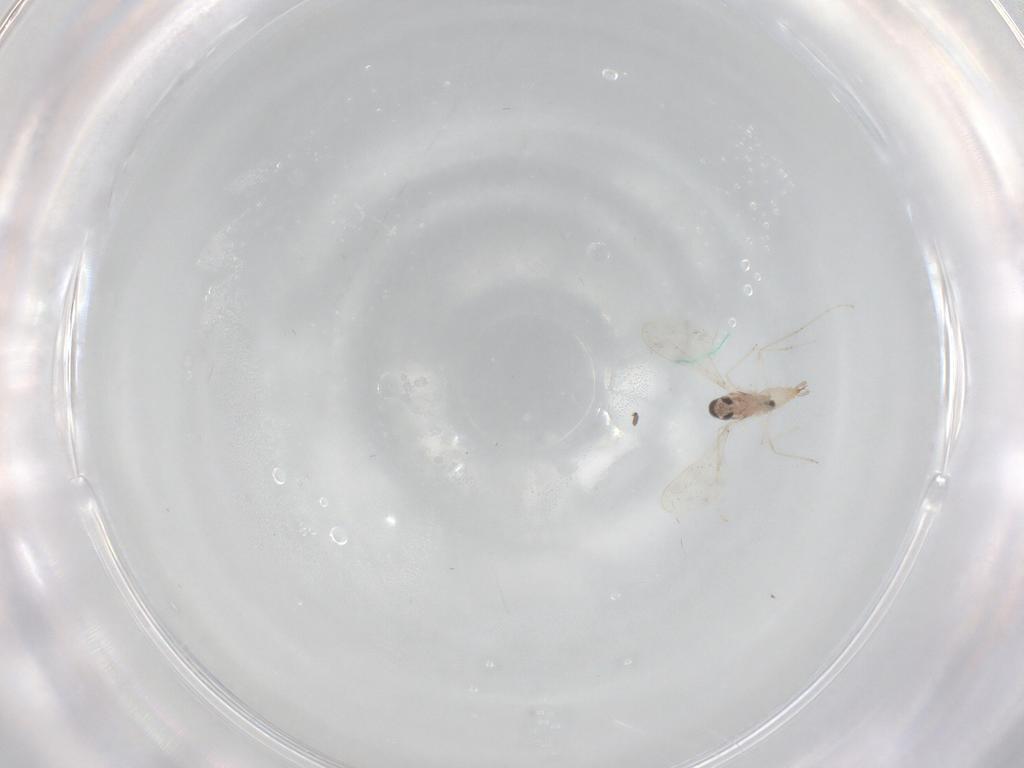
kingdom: Animalia
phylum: Arthropoda
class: Insecta
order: Diptera
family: Cecidomyiidae
